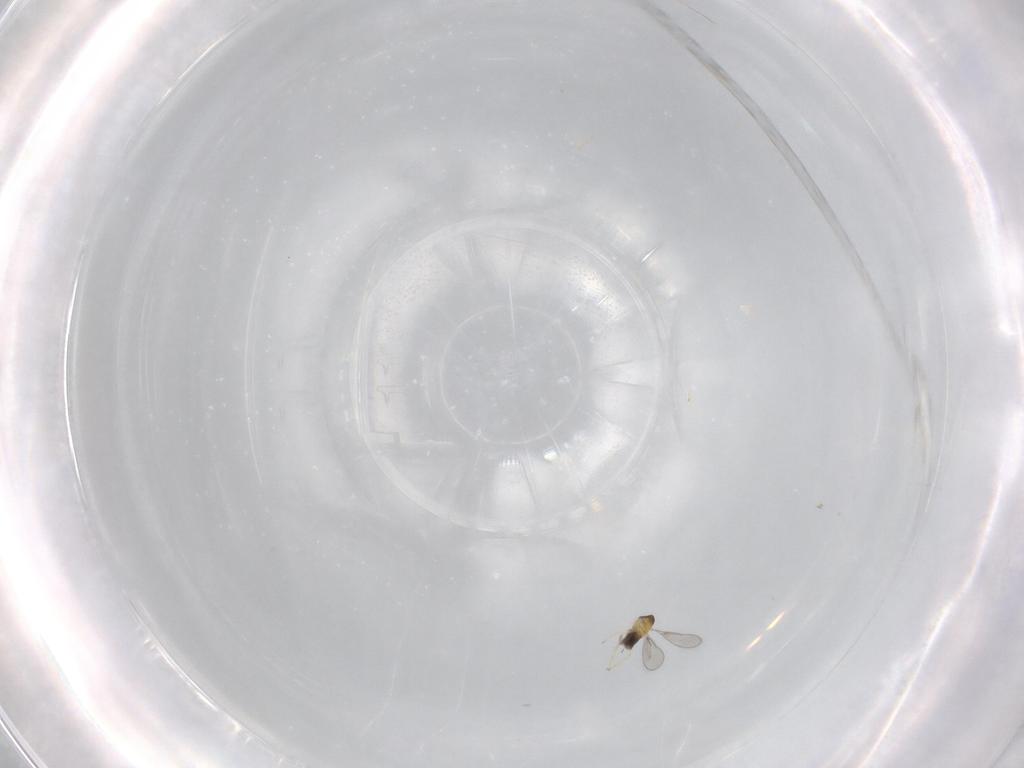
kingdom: Animalia
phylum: Arthropoda
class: Insecta
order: Hymenoptera
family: Aphelinidae
